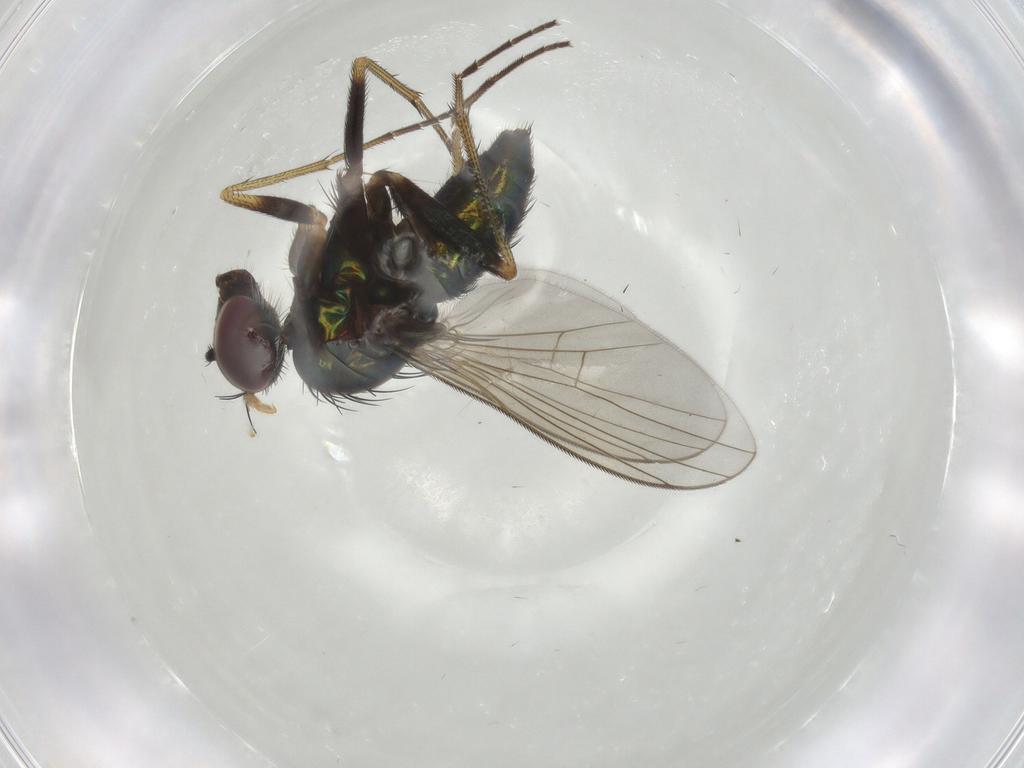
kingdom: Animalia
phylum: Arthropoda
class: Insecta
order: Diptera
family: Dolichopodidae
